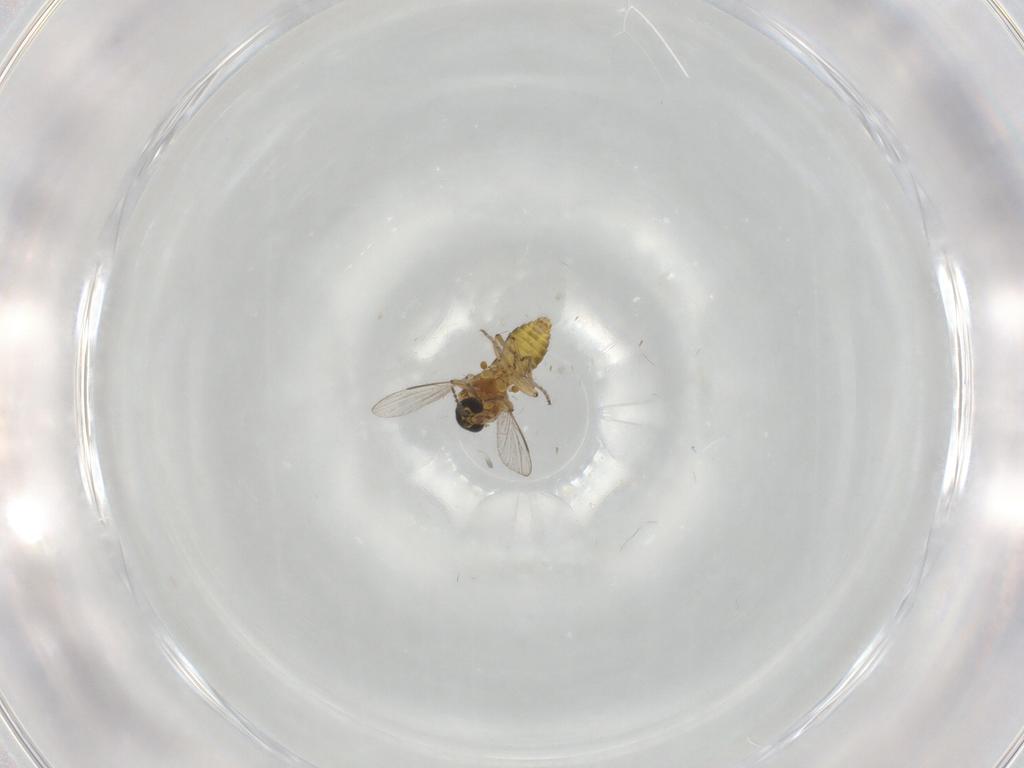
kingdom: Animalia
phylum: Arthropoda
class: Insecta
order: Diptera
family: Ceratopogonidae
